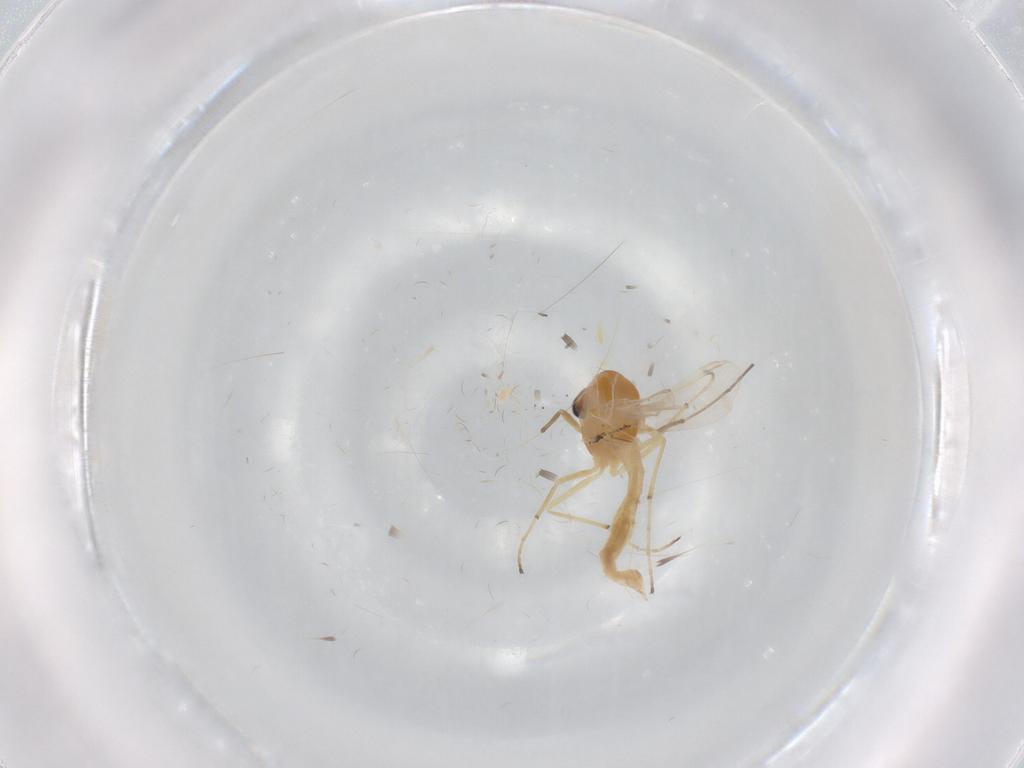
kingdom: Animalia
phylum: Arthropoda
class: Insecta
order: Diptera
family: Chironomidae
